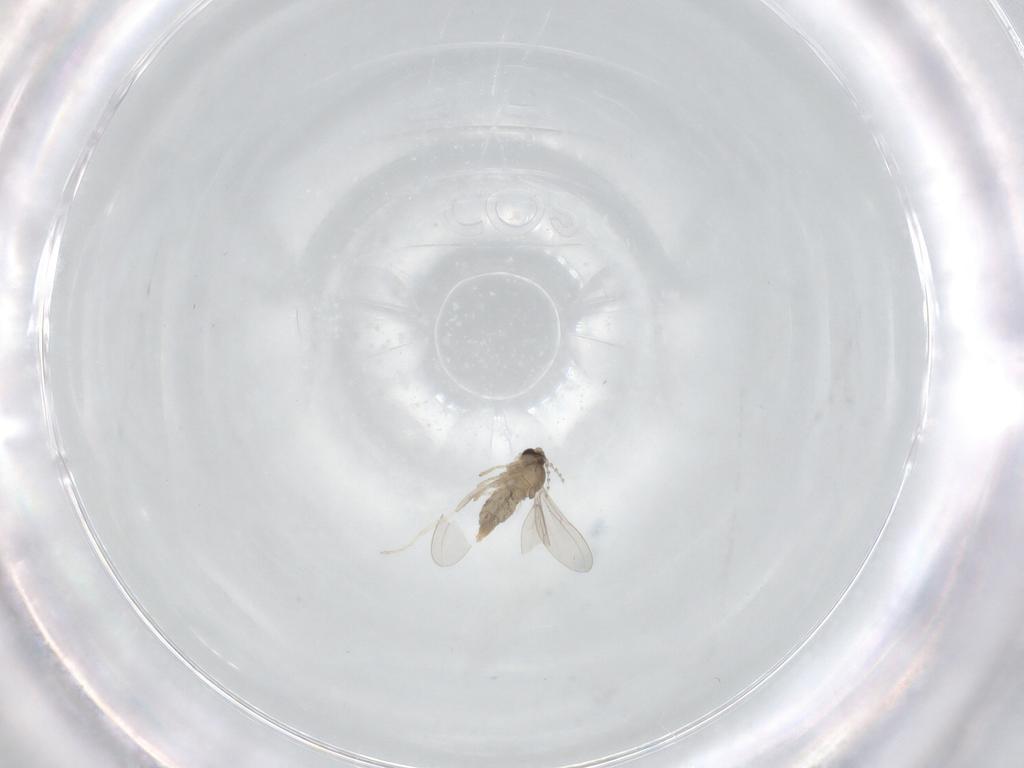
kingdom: Animalia
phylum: Arthropoda
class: Insecta
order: Diptera
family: Cecidomyiidae
